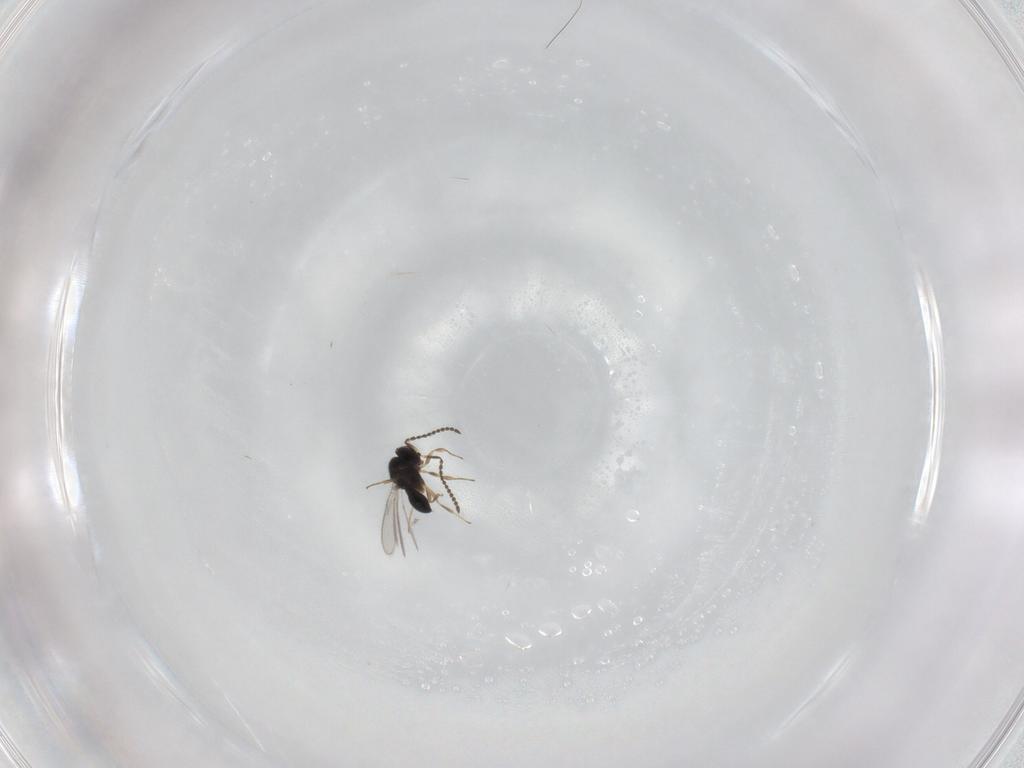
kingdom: Animalia
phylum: Arthropoda
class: Insecta
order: Hymenoptera
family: Scelionidae
